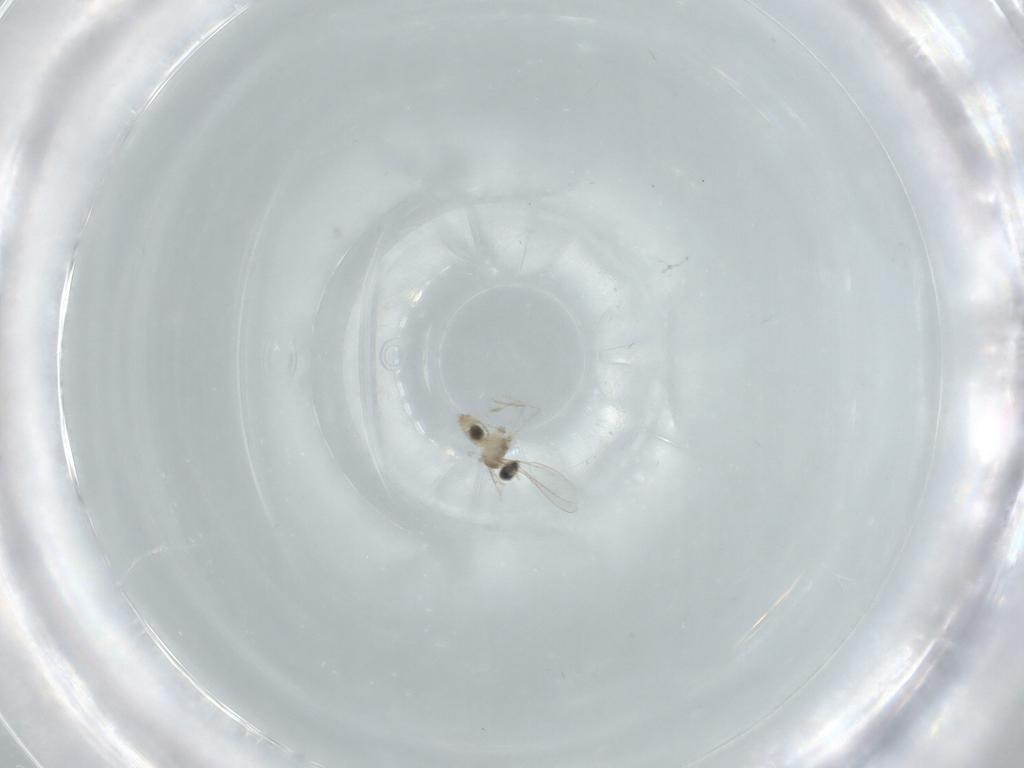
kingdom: Animalia
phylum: Arthropoda
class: Insecta
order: Diptera
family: Cecidomyiidae
